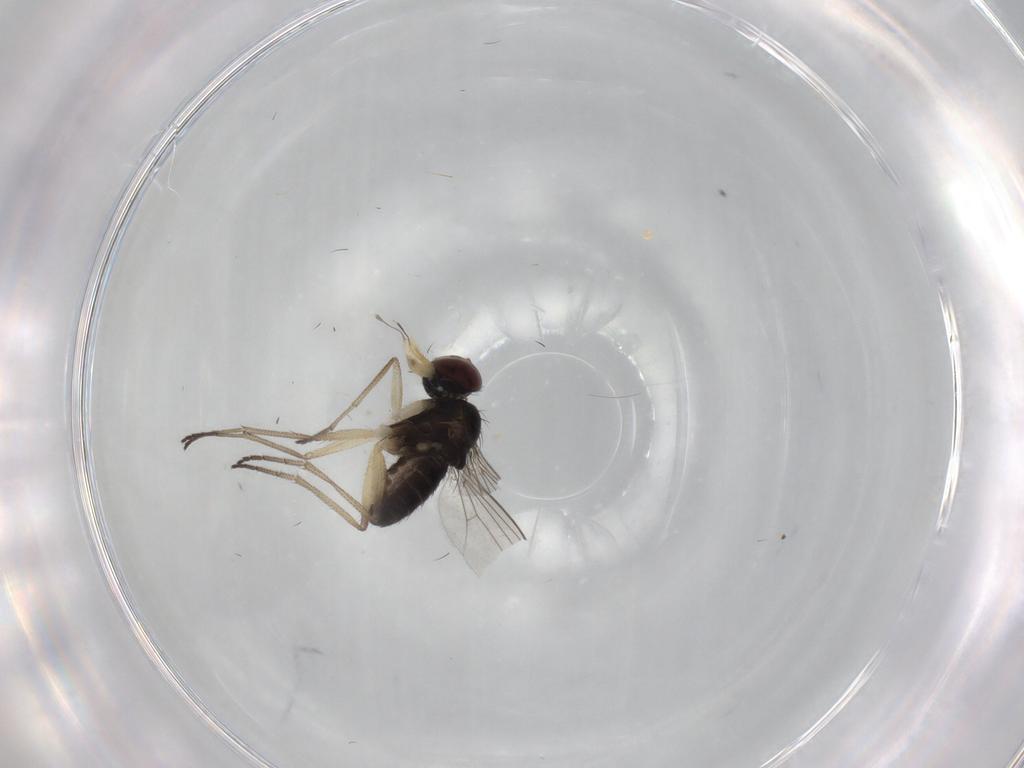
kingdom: Animalia
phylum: Arthropoda
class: Insecta
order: Diptera
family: Dolichopodidae
